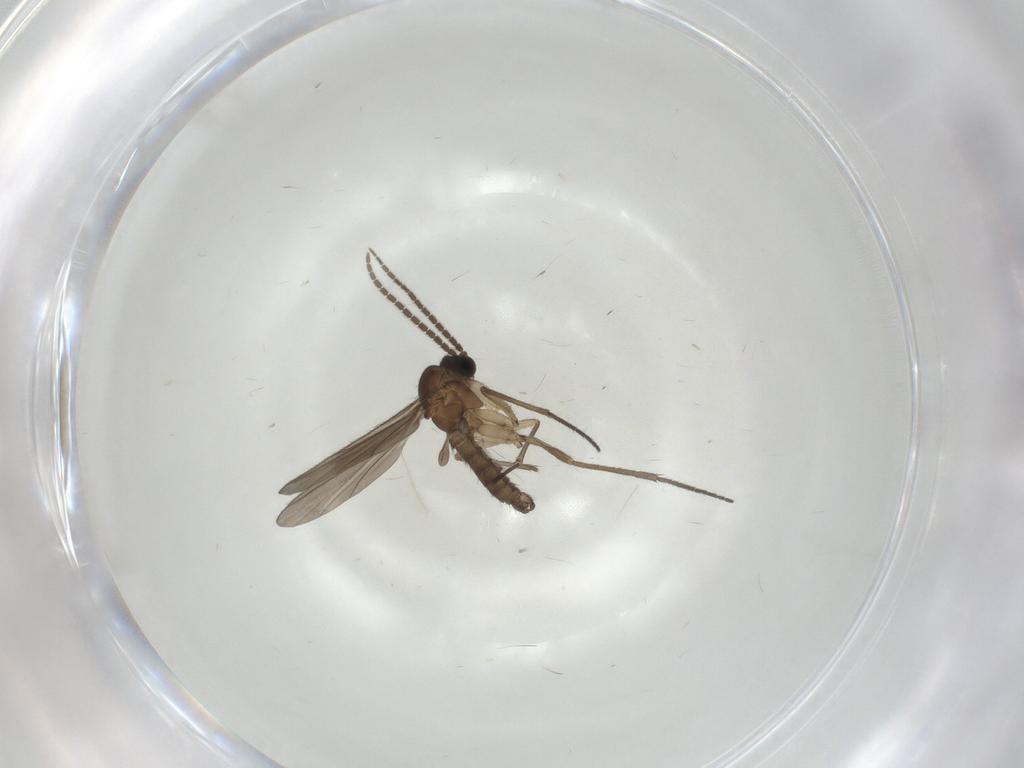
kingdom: Animalia
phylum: Arthropoda
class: Insecta
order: Diptera
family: Sciaridae
